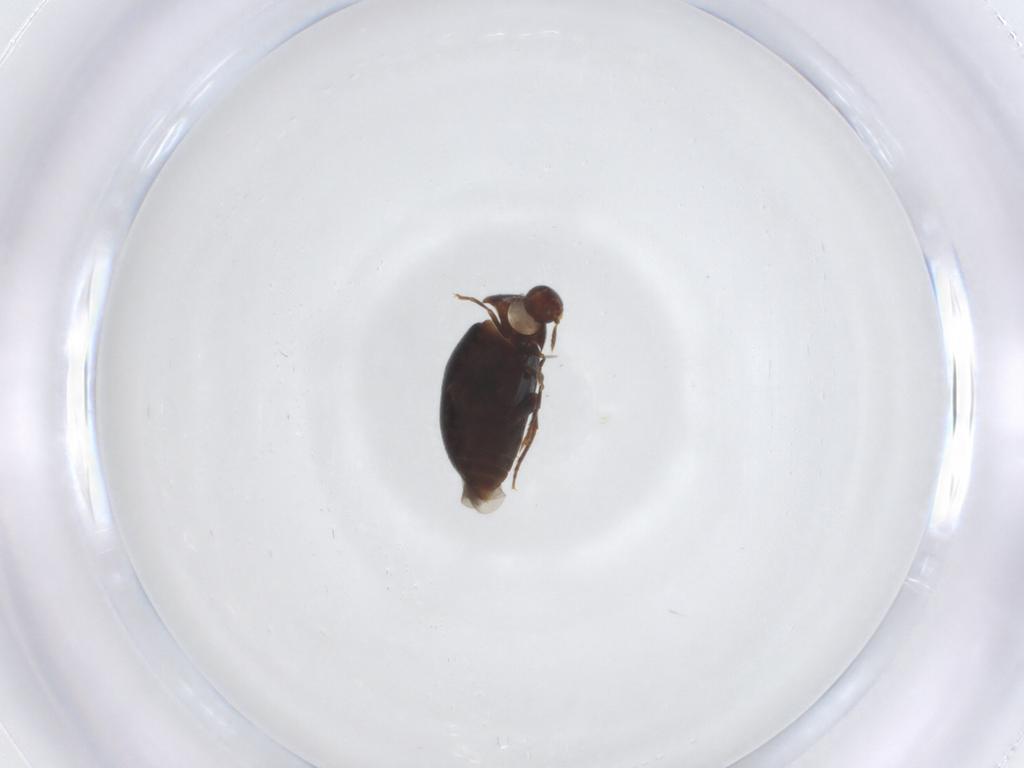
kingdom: Animalia
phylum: Arthropoda
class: Insecta
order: Coleoptera
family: Melandryidae
